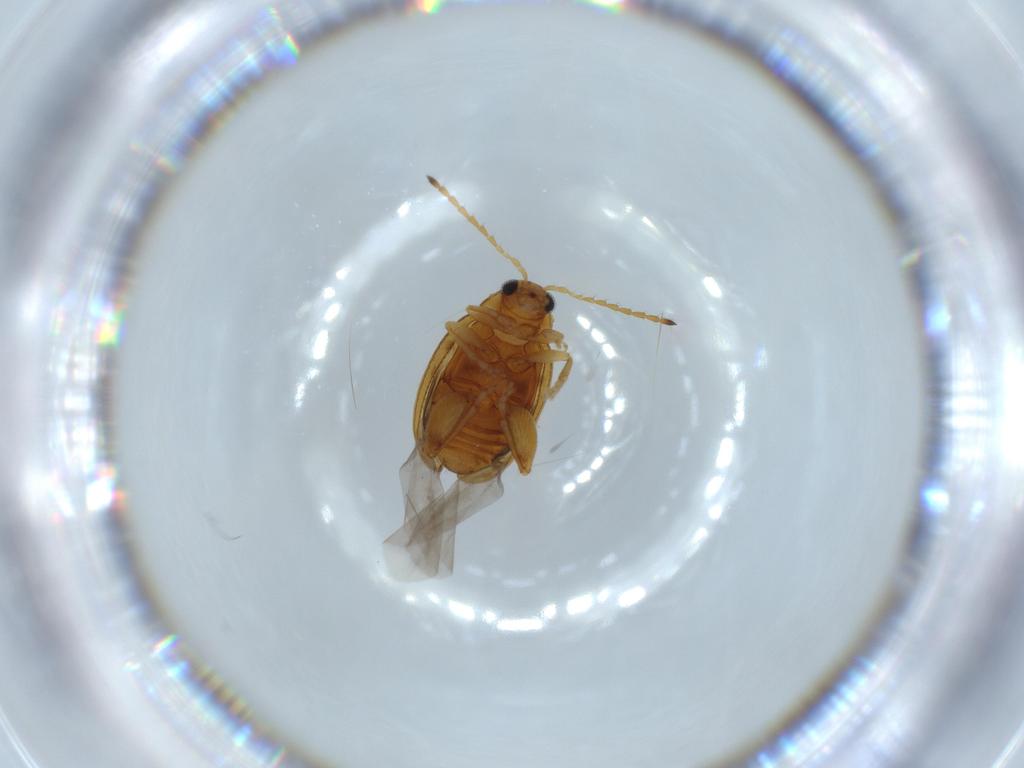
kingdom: Animalia
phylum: Arthropoda
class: Insecta
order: Coleoptera
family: Chrysomelidae
